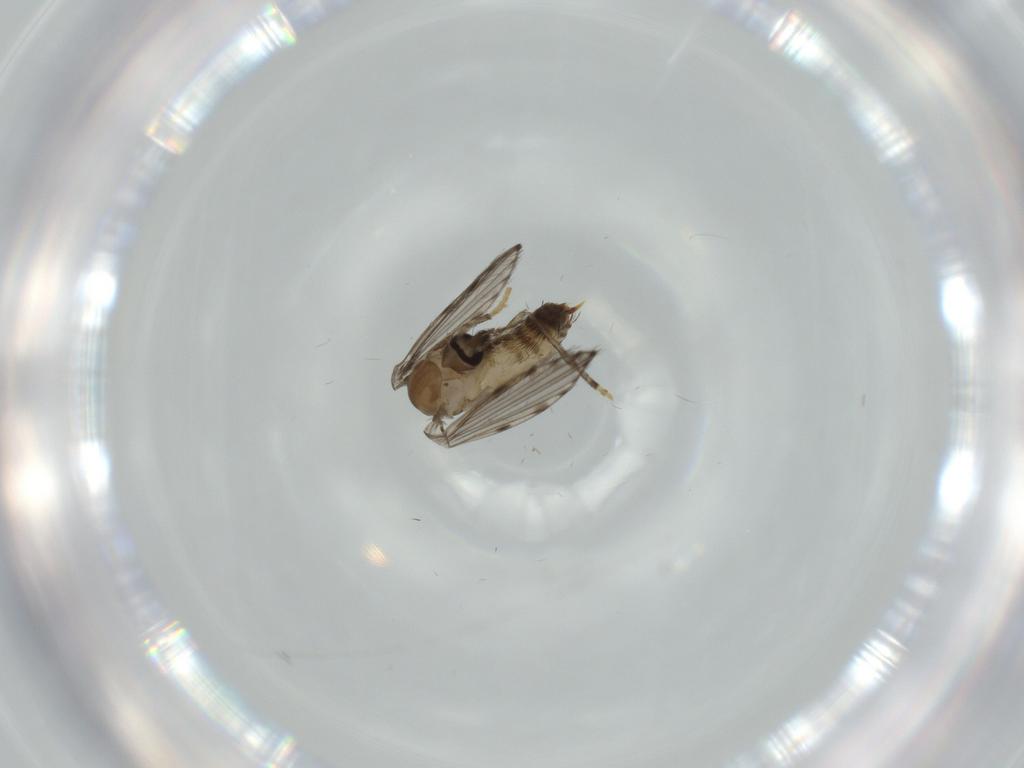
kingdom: Animalia
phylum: Arthropoda
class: Insecta
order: Diptera
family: Psychodidae
